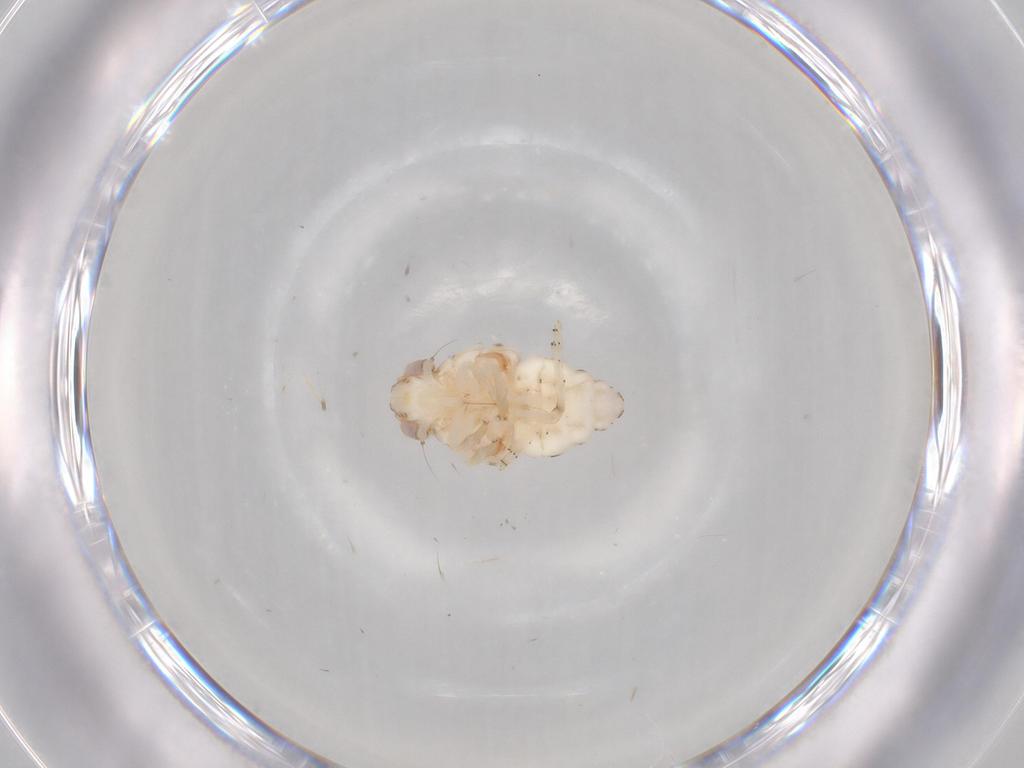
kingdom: Animalia
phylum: Arthropoda
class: Insecta
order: Hemiptera
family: Nogodinidae
